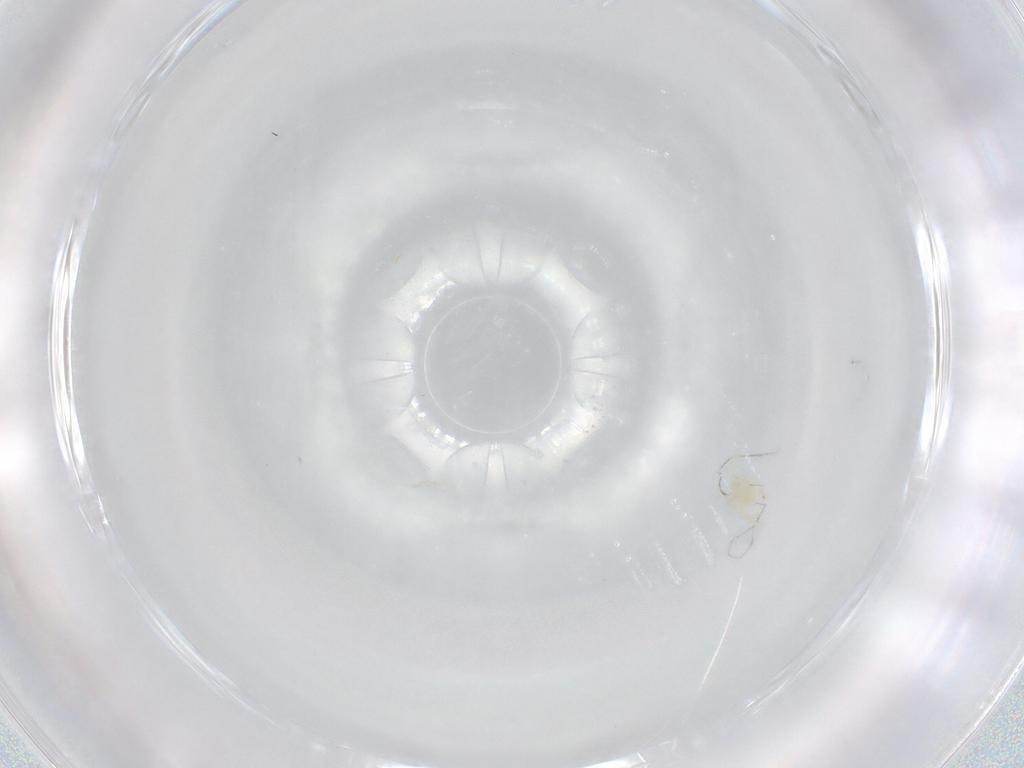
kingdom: Animalia
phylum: Arthropoda
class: Arachnida
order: Trombidiformes
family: Hydryphantidae
